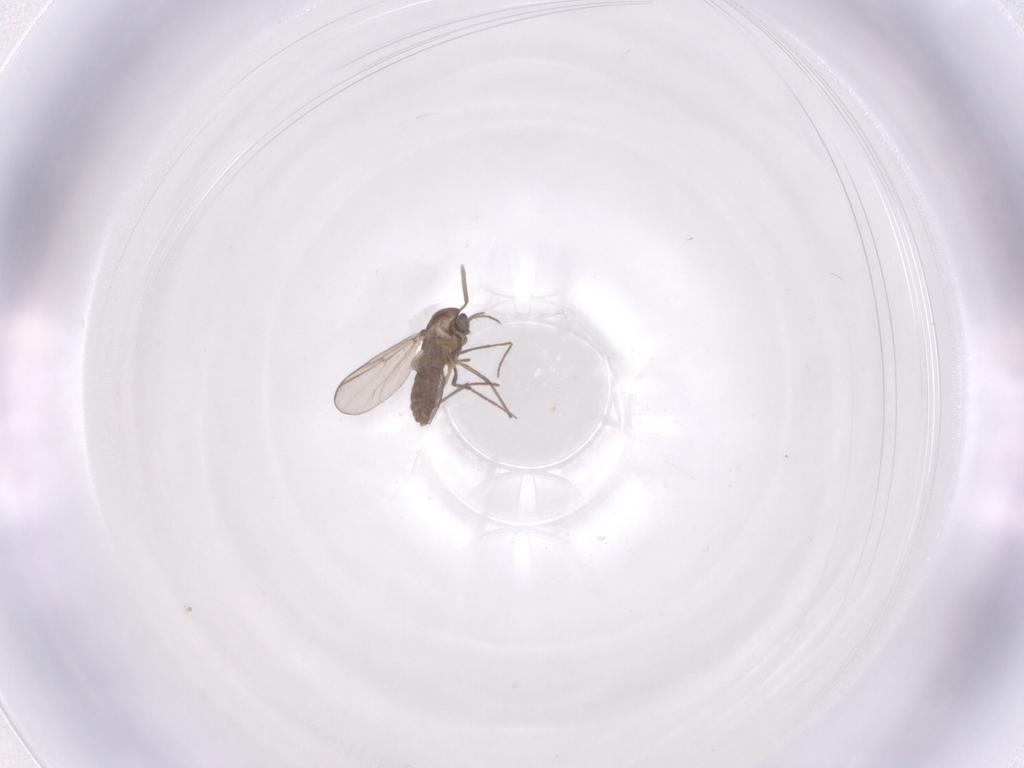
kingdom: Animalia
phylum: Arthropoda
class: Insecta
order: Diptera
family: Chironomidae
